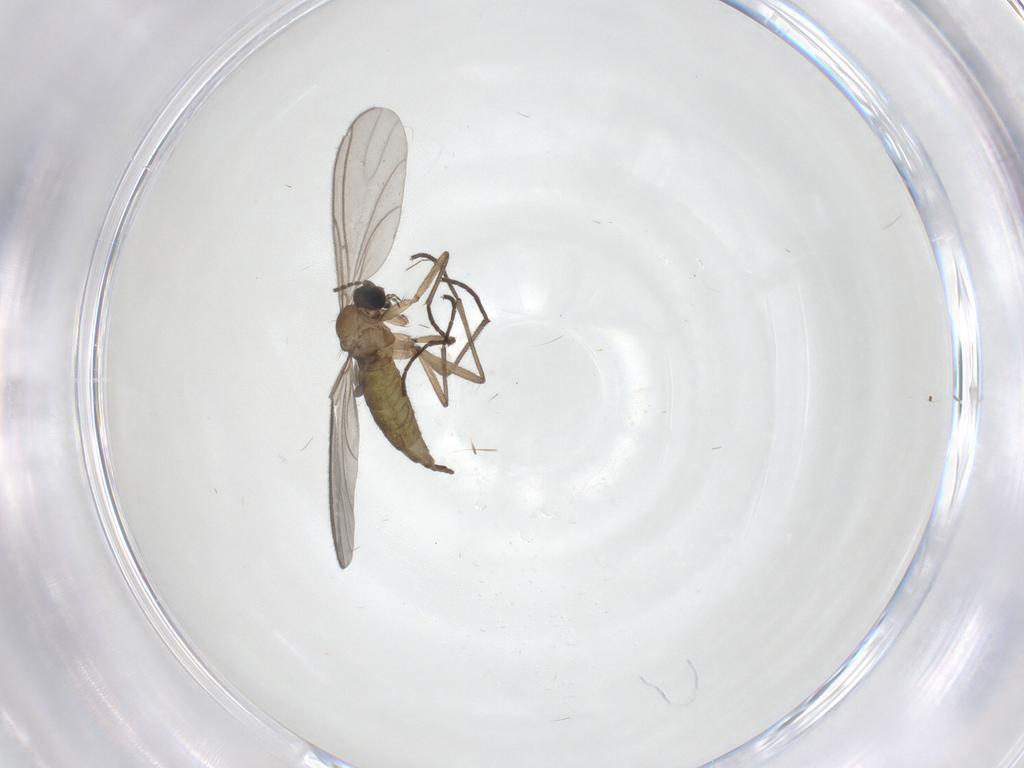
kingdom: Animalia
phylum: Arthropoda
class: Insecta
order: Diptera
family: Sciaridae
